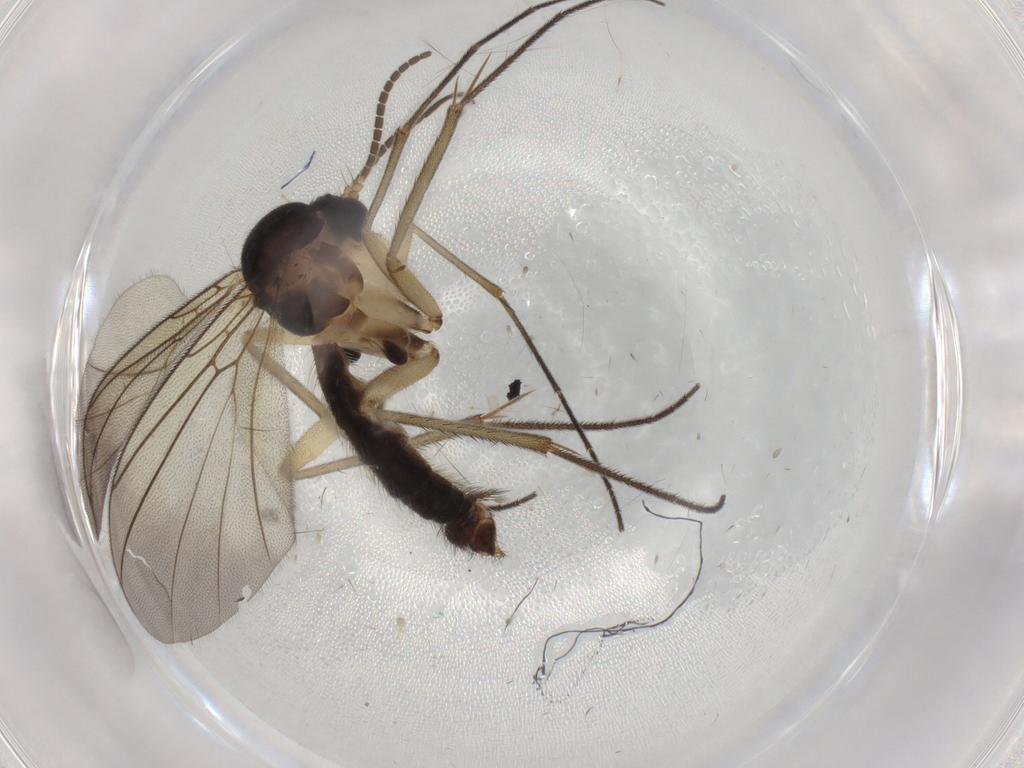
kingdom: Animalia
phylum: Arthropoda
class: Insecta
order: Diptera
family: Mycetophilidae
